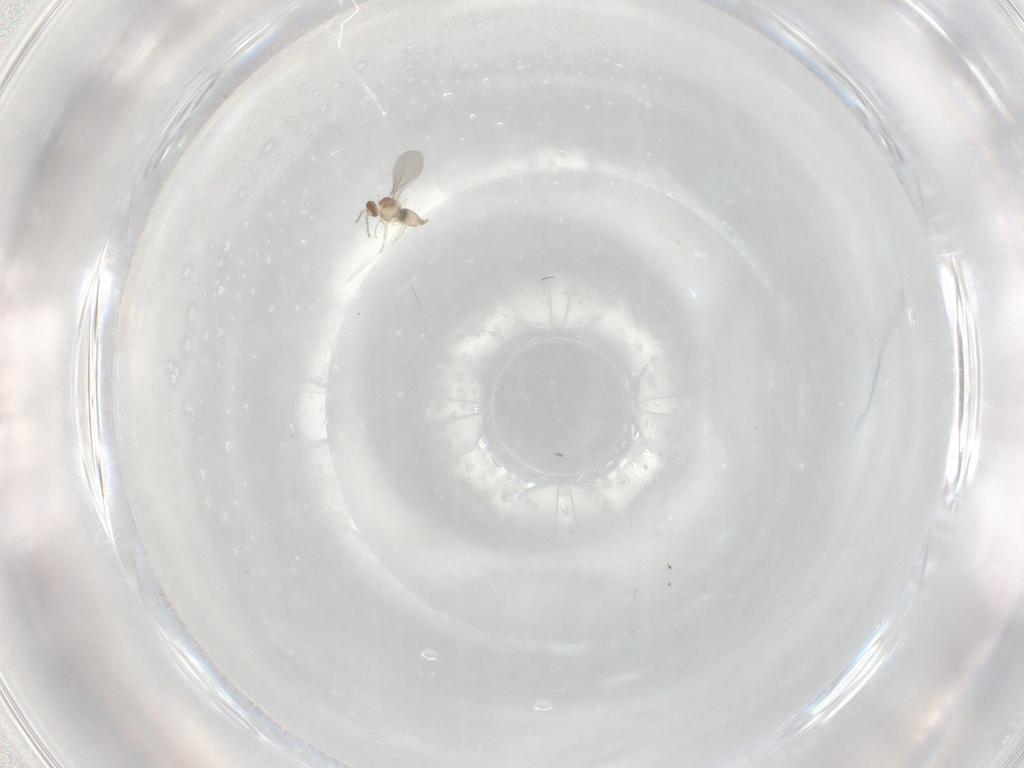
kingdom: Animalia
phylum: Arthropoda
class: Insecta
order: Diptera
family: Cecidomyiidae
